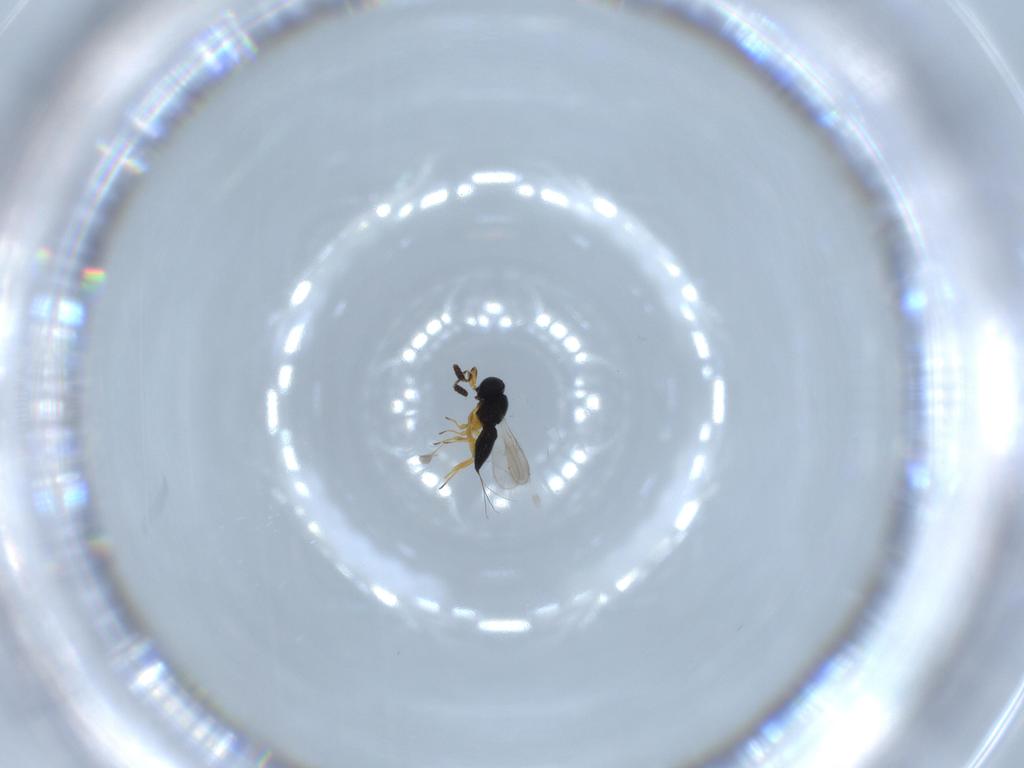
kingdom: Animalia
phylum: Arthropoda
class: Insecta
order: Hymenoptera
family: Scelionidae
